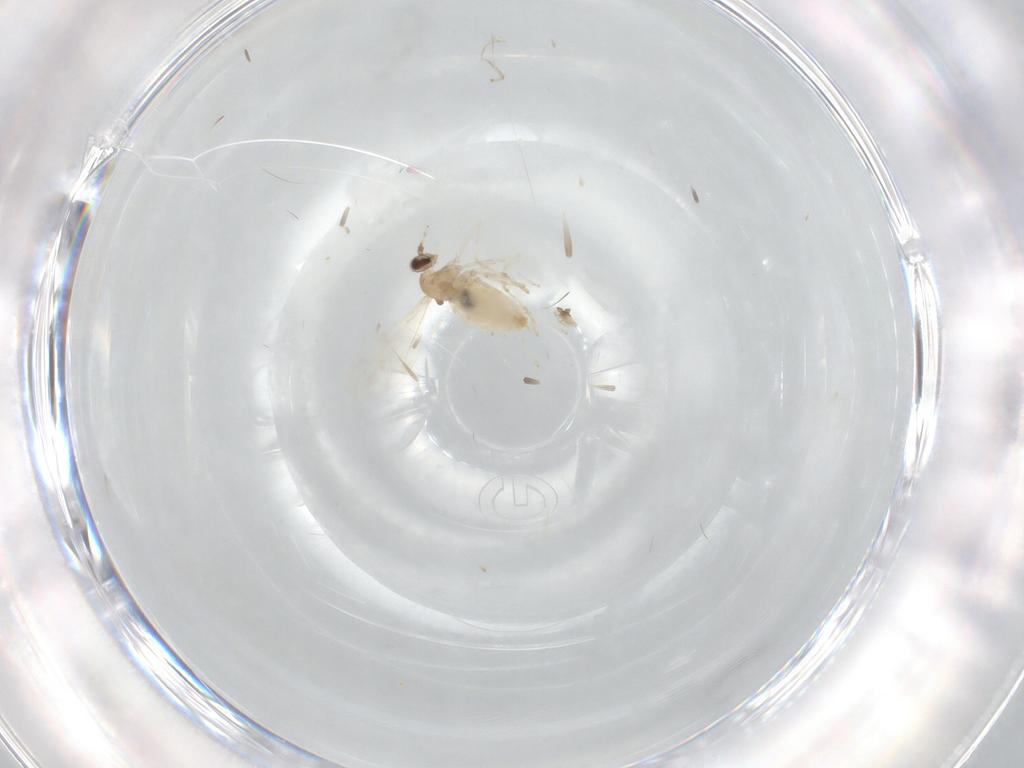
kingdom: Animalia
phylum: Arthropoda
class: Insecta
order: Diptera
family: Cecidomyiidae
